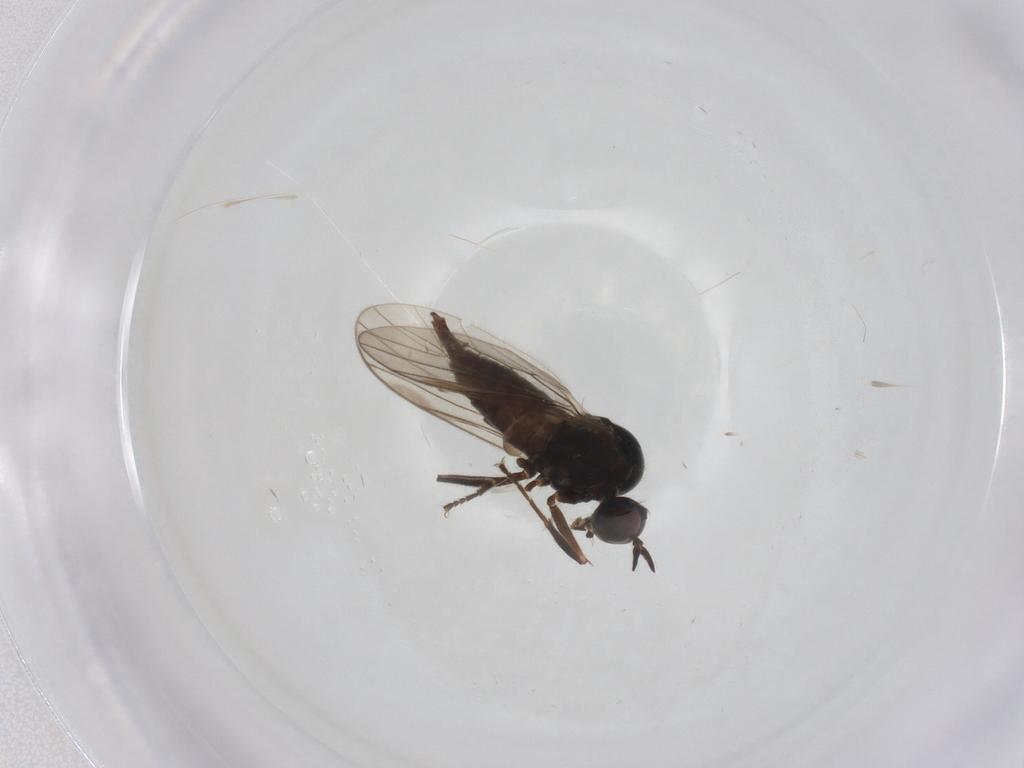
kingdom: Animalia
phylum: Arthropoda
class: Insecta
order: Diptera
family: Hybotidae
